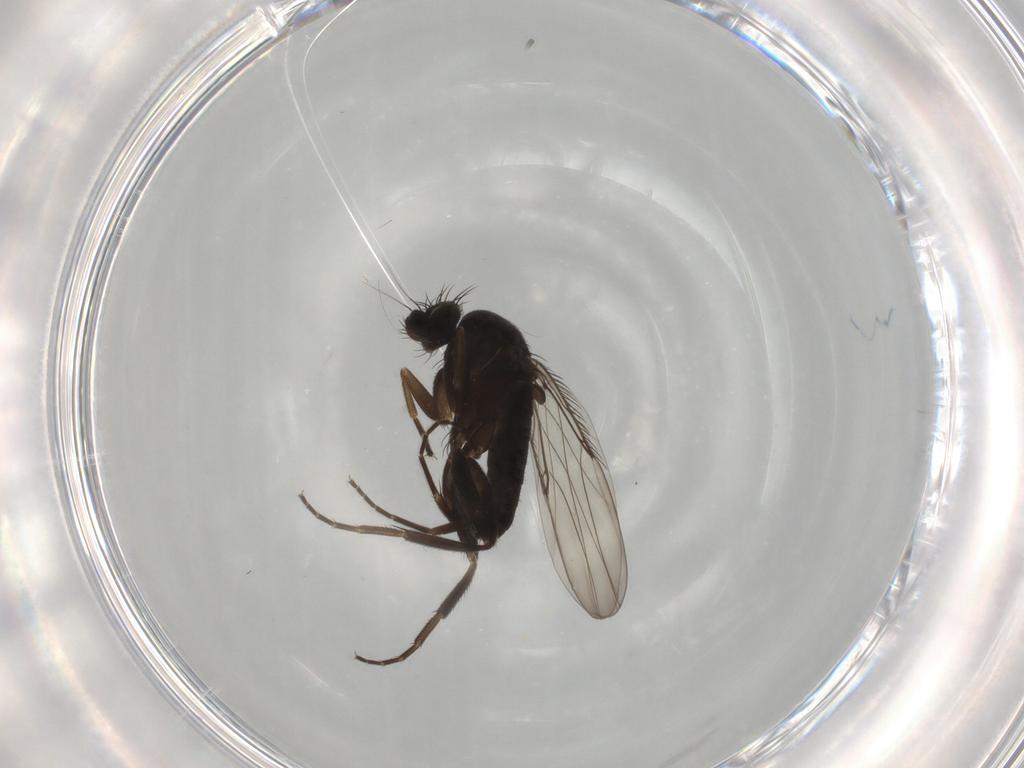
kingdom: Animalia
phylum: Arthropoda
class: Insecta
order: Diptera
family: Phoridae
